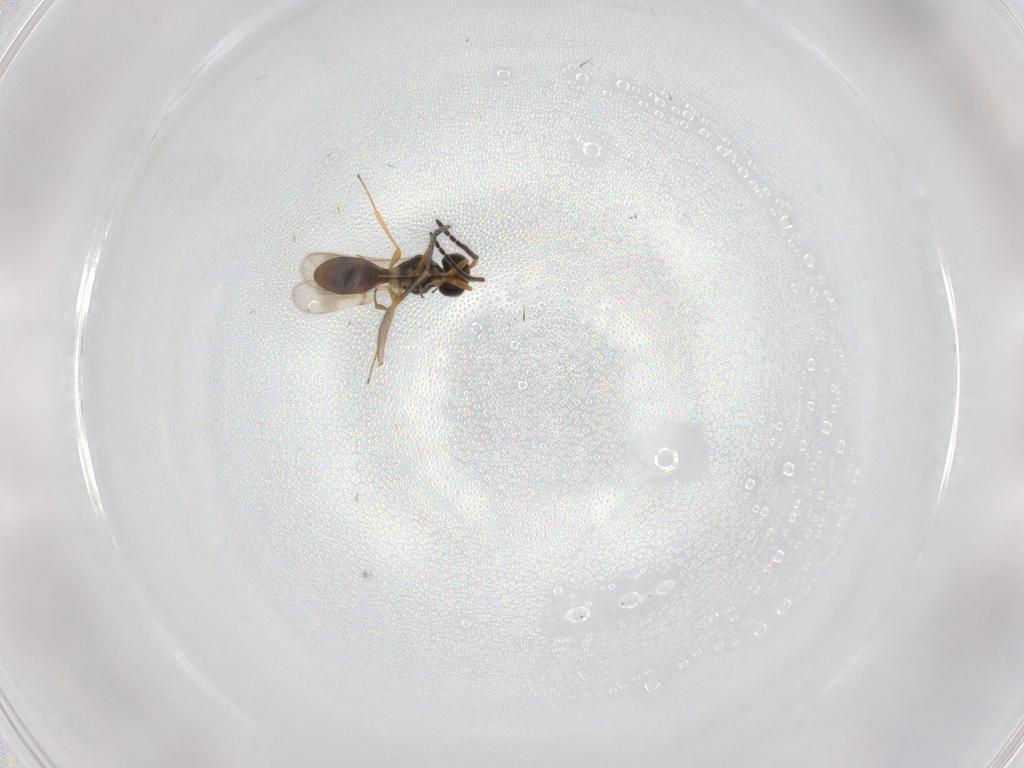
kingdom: Animalia
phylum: Arthropoda
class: Insecta
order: Hymenoptera
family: Scelionidae
